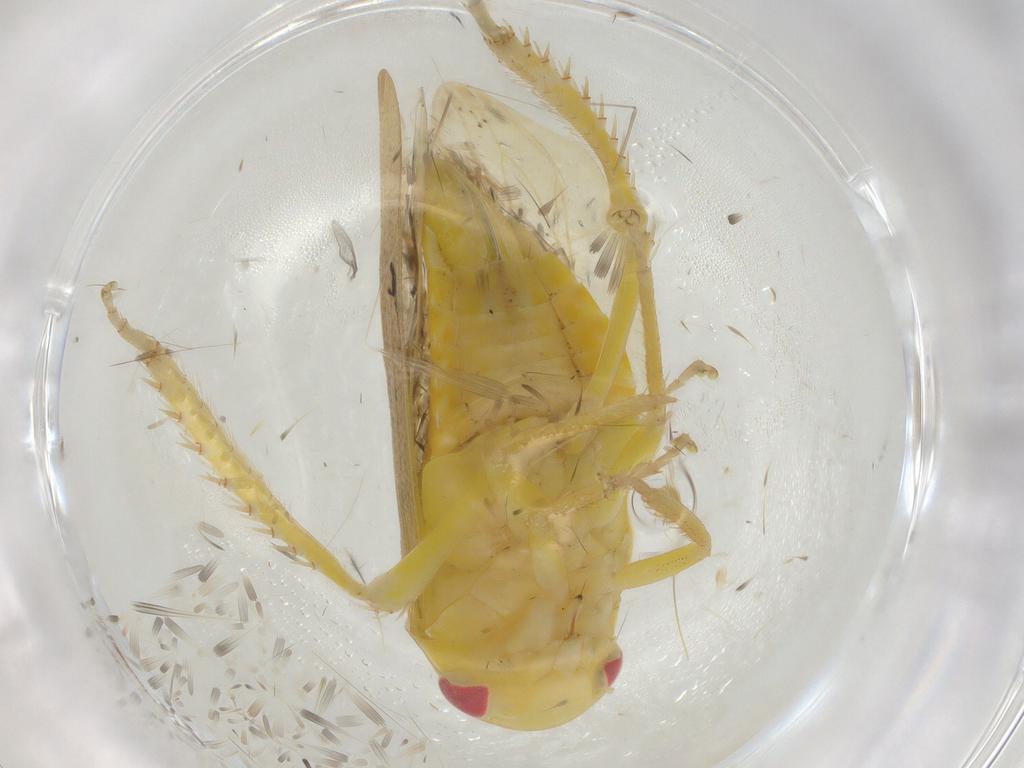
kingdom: Animalia
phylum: Arthropoda
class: Insecta
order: Hemiptera
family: Cicadellidae
